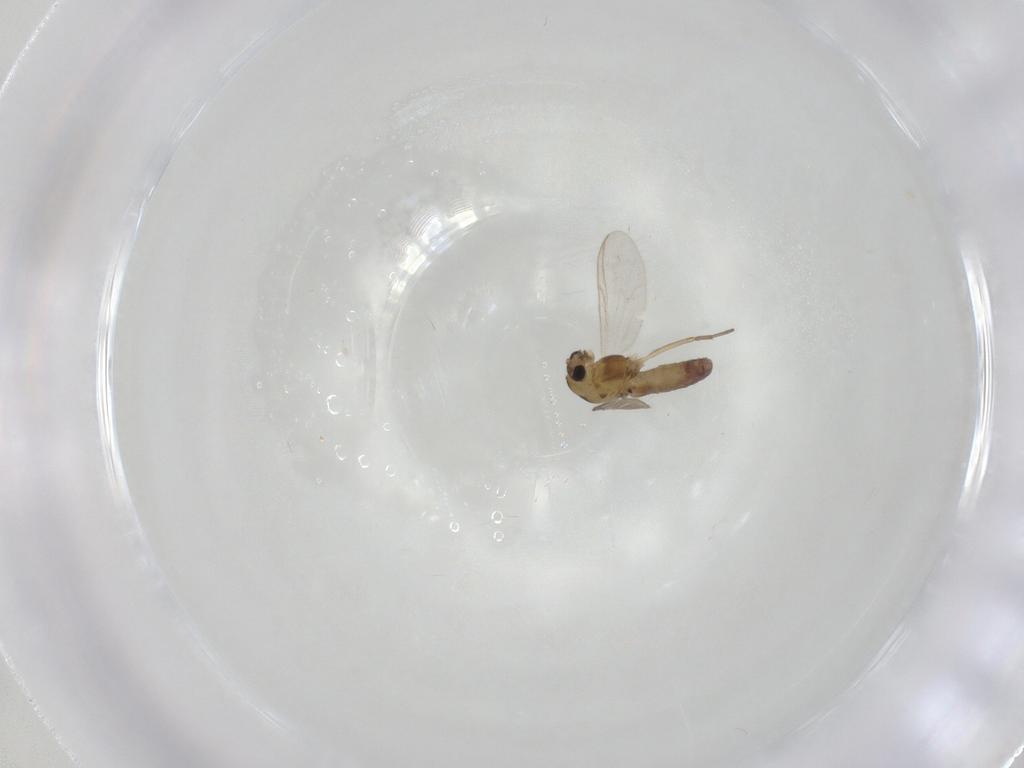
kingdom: Animalia
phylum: Arthropoda
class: Insecta
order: Diptera
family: Chironomidae
